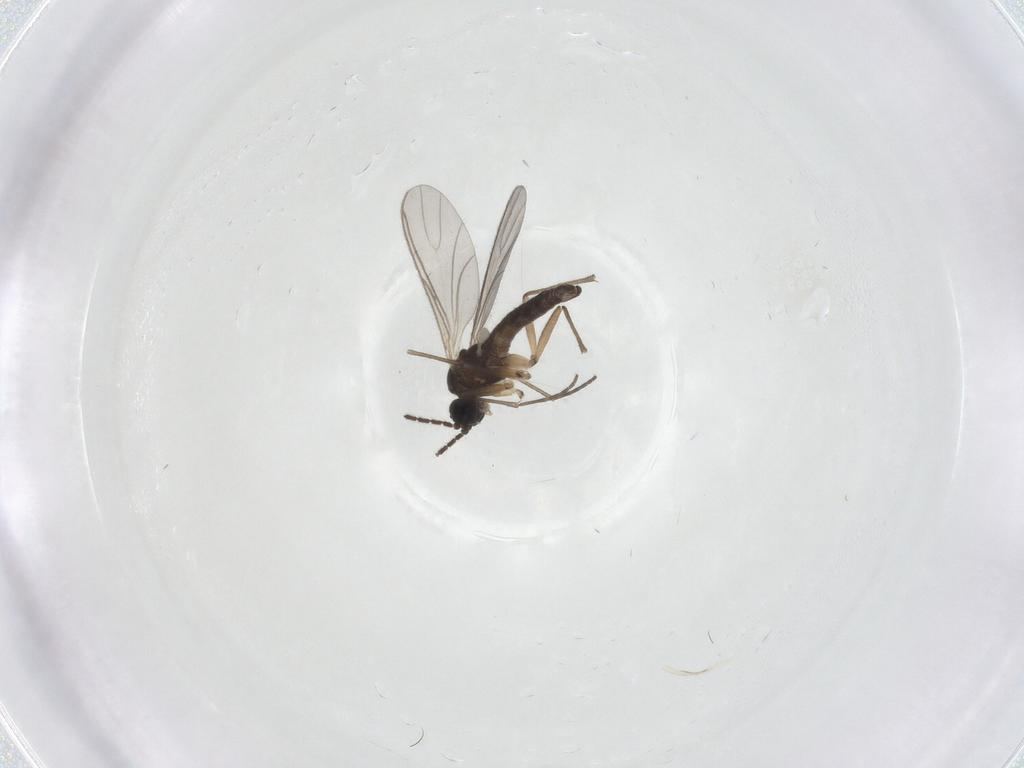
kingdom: Animalia
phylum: Arthropoda
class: Insecta
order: Diptera
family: Sciaridae
